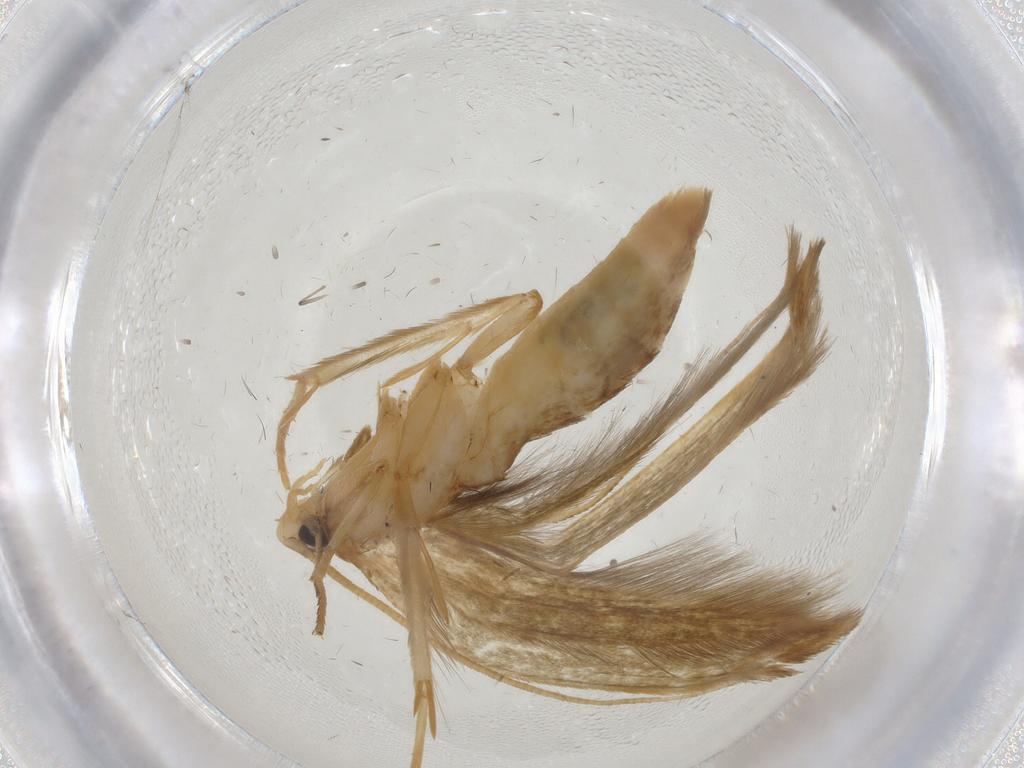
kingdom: Animalia
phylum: Arthropoda
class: Insecta
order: Lepidoptera
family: Tineidae
